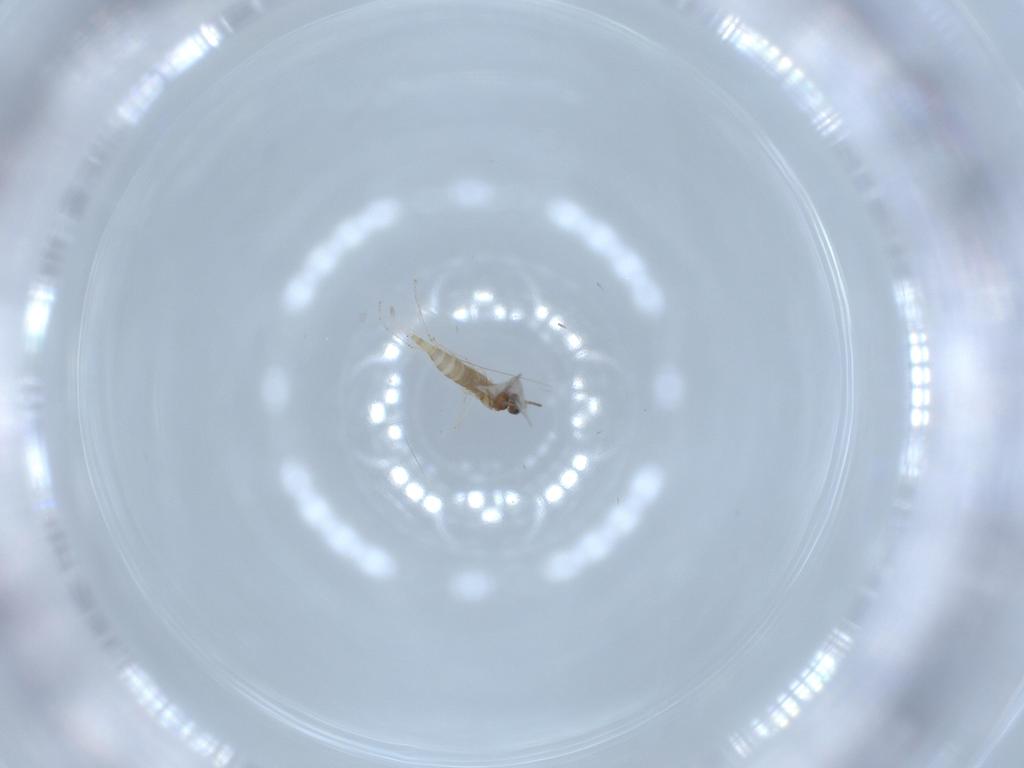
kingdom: Animalia
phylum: Arthropoda
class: Insecta
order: Diptera
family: Cecidomyiidae
